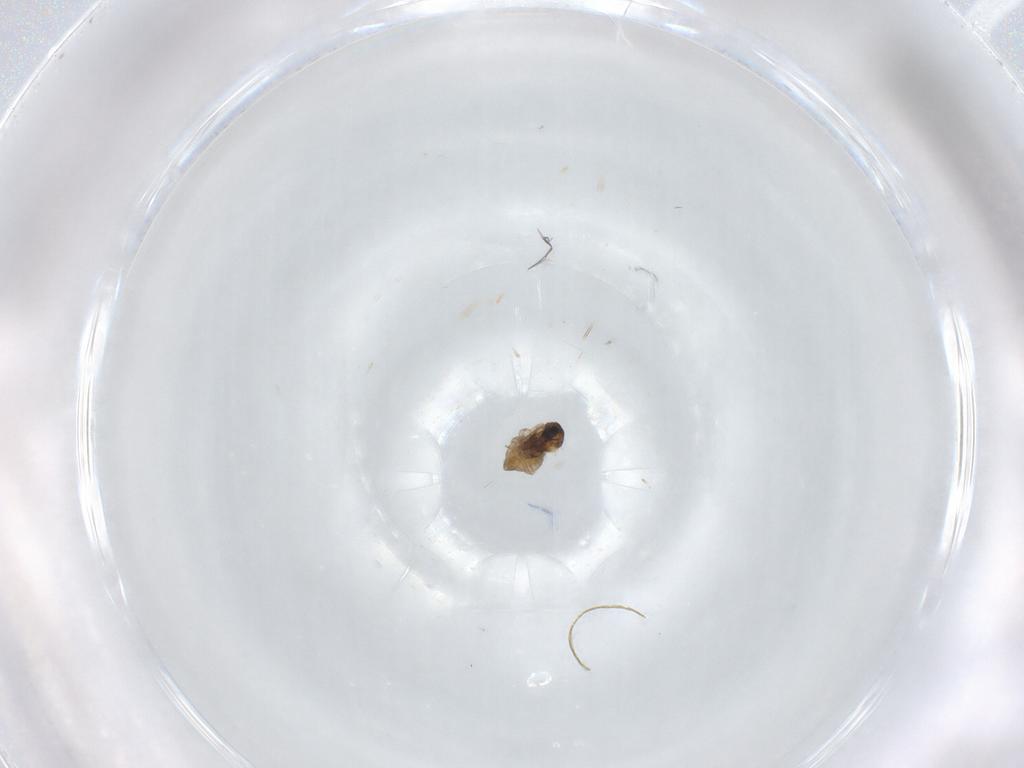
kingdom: Animalia
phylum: Arthropoda
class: Insecta
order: Diptera
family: Cecidomyiidae
